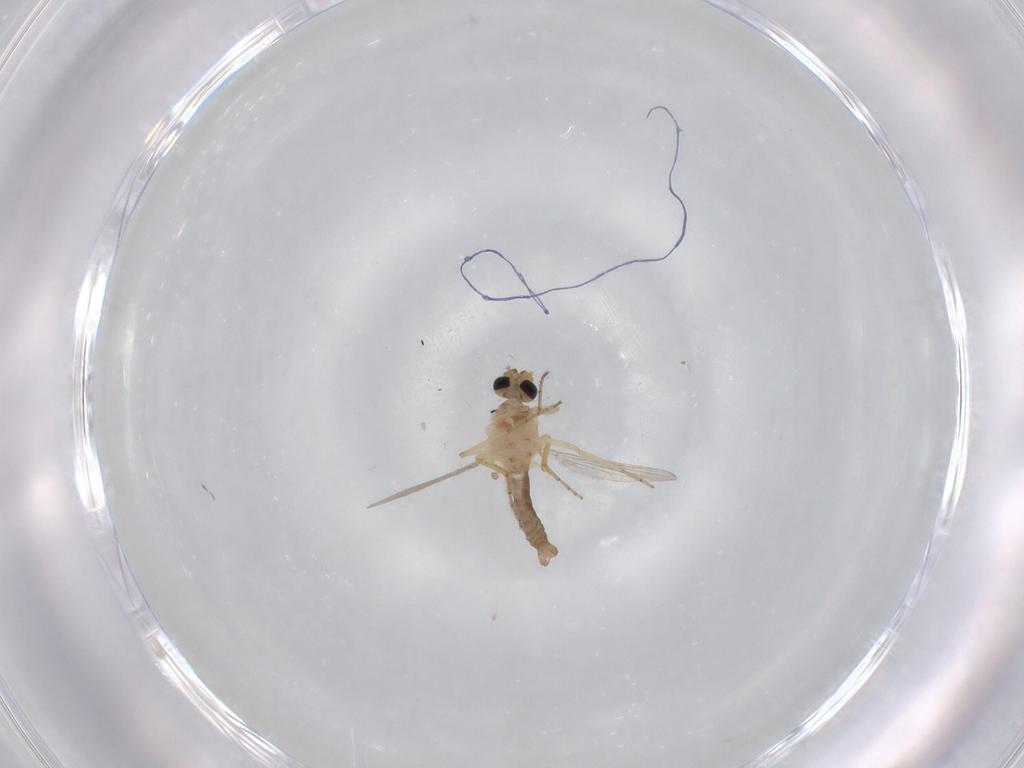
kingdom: Animalia
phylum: Arthropoda
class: Insecta
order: Diptera
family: Ceratopogonidae
